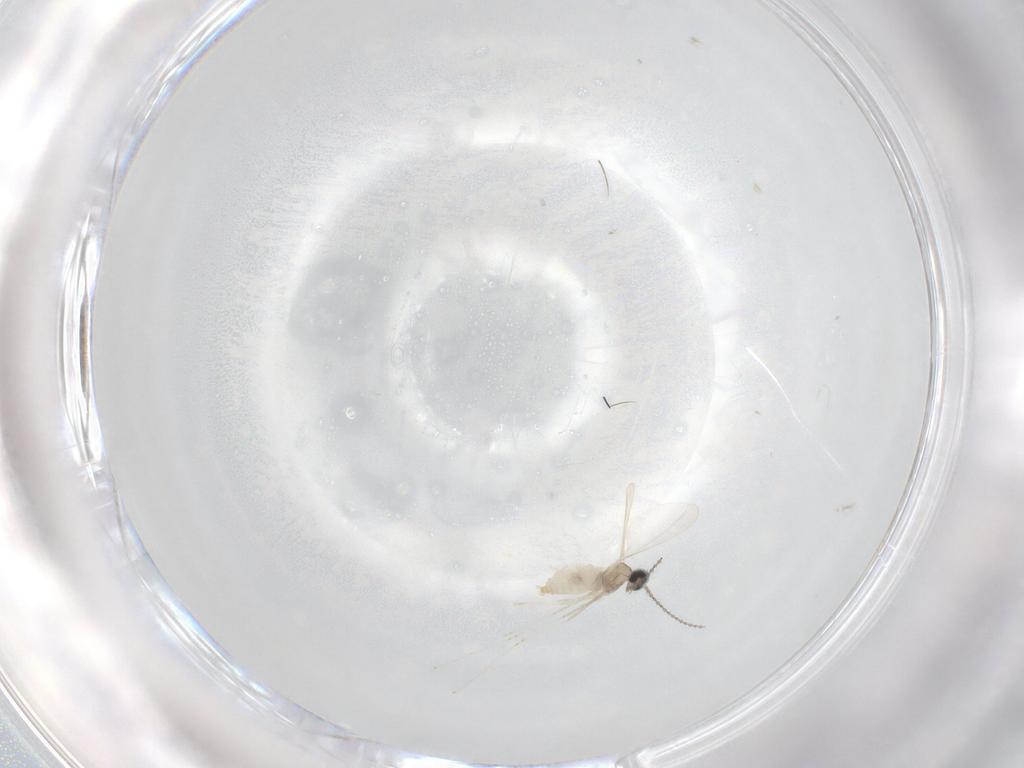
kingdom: Animalia
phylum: Arthropoda
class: Insecta
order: Diptera
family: Cecidomyiidae
